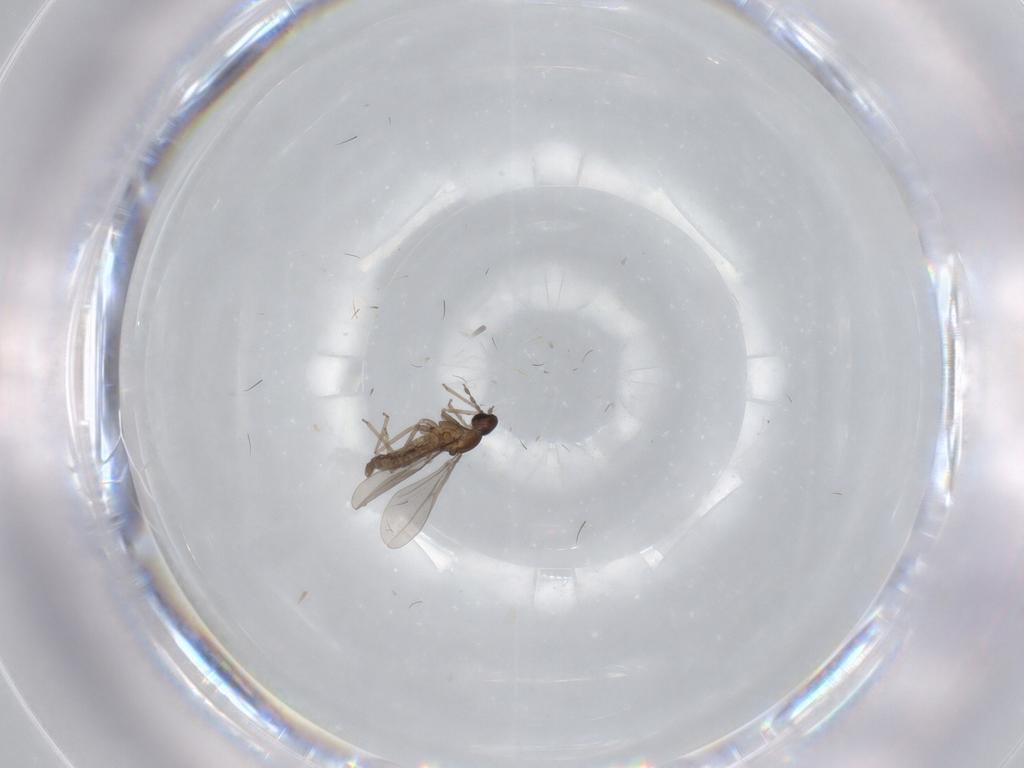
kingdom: Animalia
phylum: Arthropoda
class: Insecta
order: Diptera
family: Cecidomyiidae
